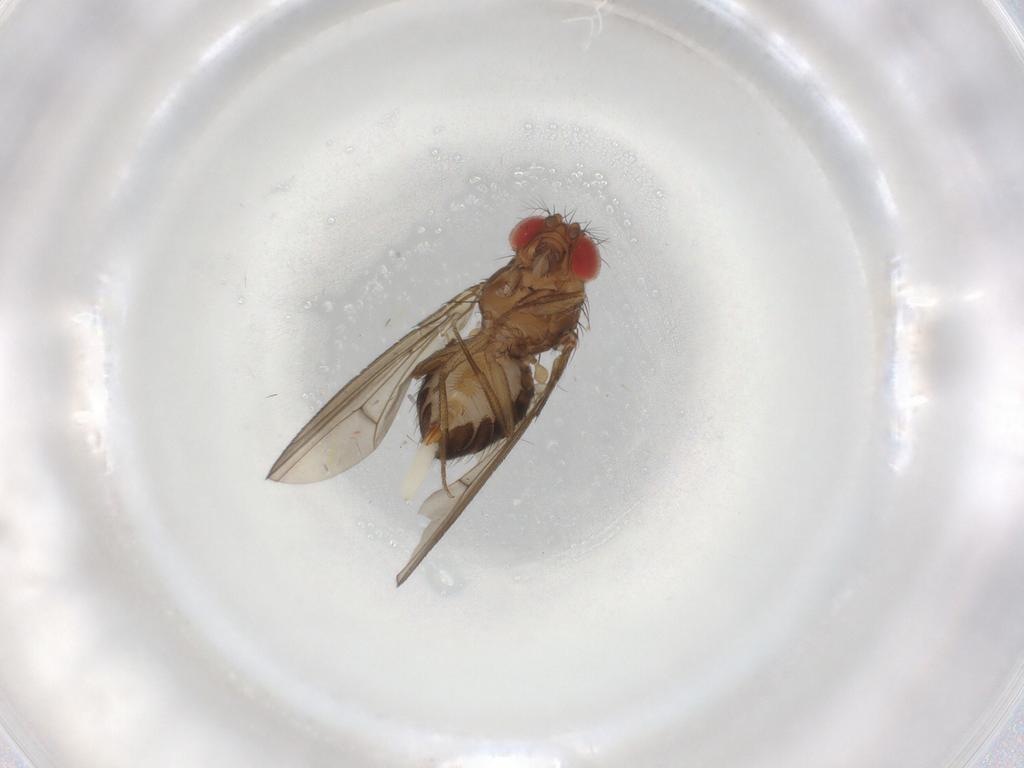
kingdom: Animalia
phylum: Arthropoda
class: Insecta
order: Diptera
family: Drosophilidae
